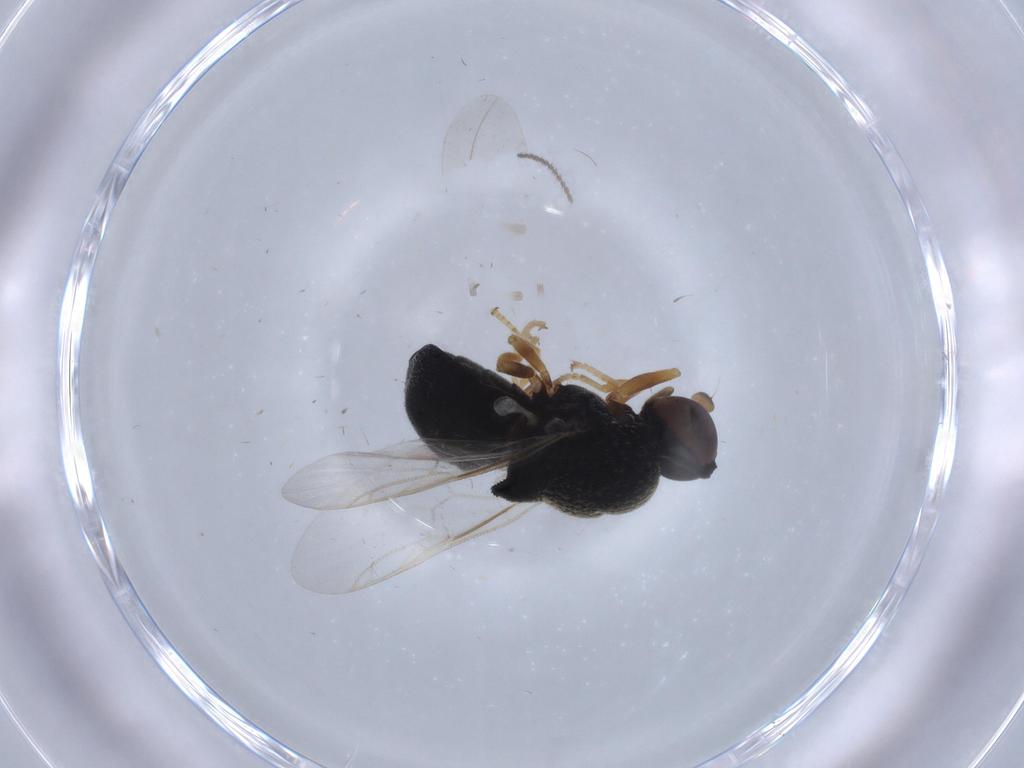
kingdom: Animalia
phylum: Arthropoda
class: Insecta
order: Diptera
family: Stratiomyidae
